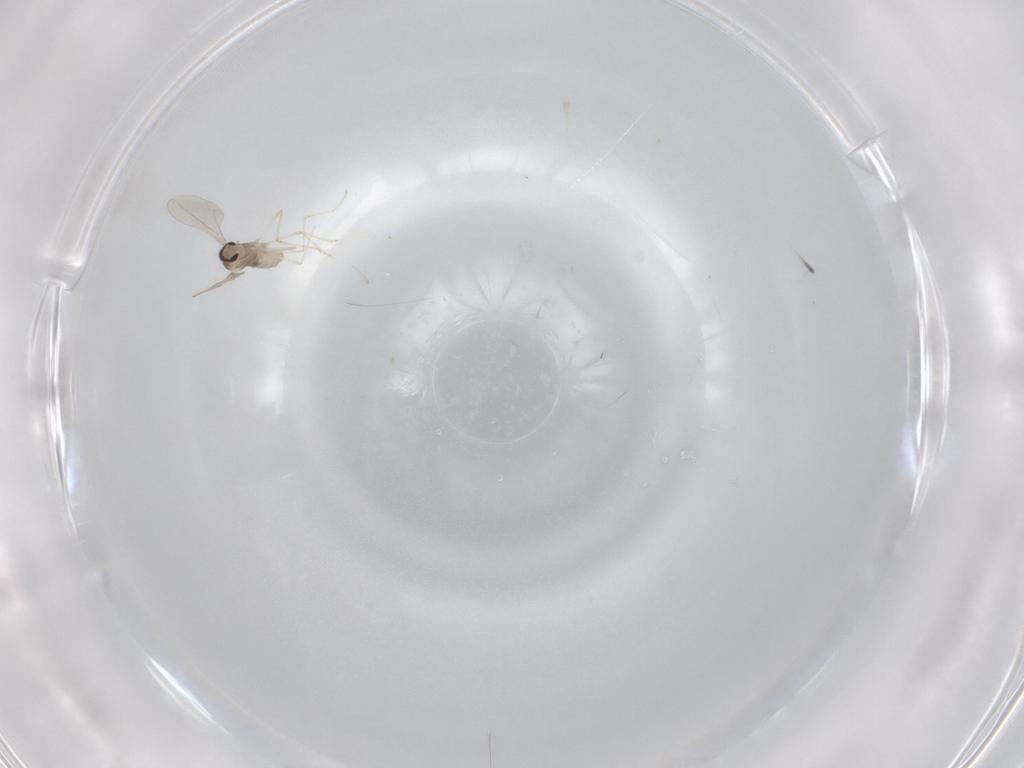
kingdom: Animalia
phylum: Arthropoda
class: Insecta
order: Diptera
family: Cecidomyiidae
